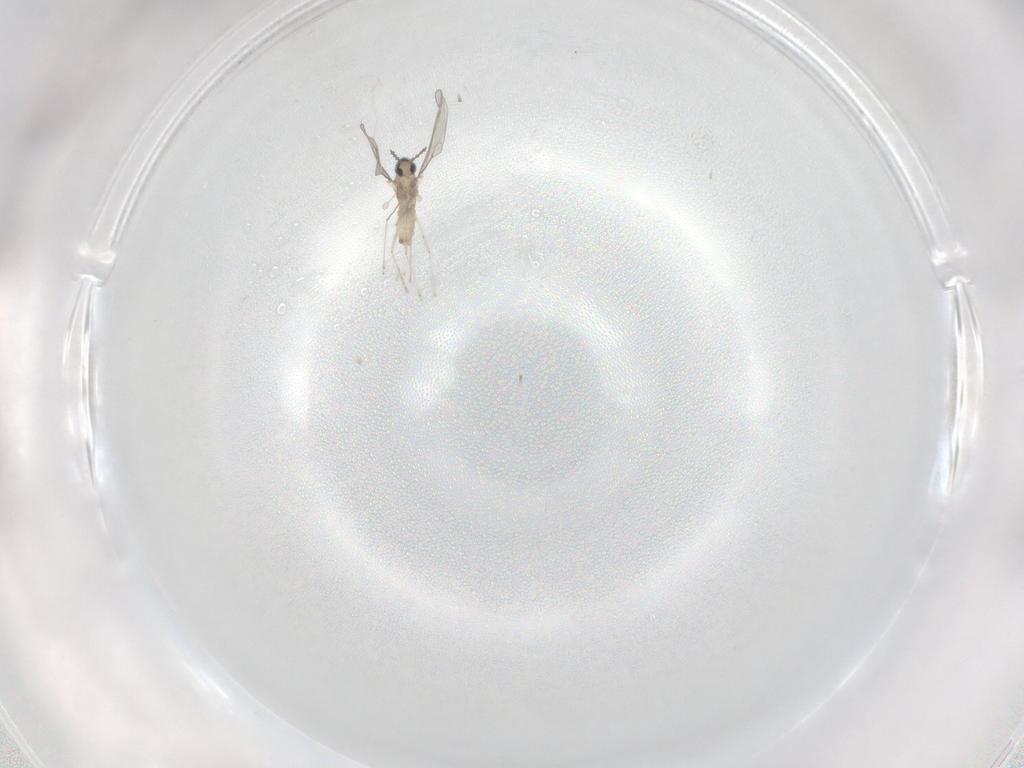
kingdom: Animalia
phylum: Arthropoda
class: Insecta
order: Diptera
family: Cecidomyiidae
